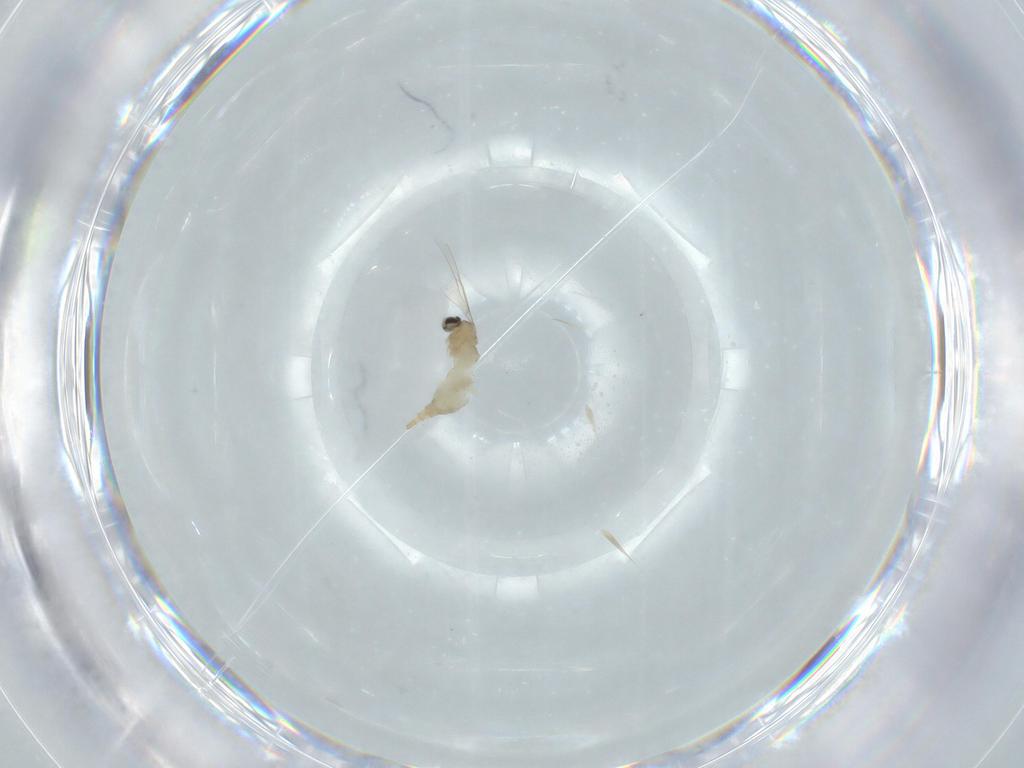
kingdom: Animalia
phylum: Arthropoda
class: Insecta
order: Diptera
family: Cecidomyiidae
